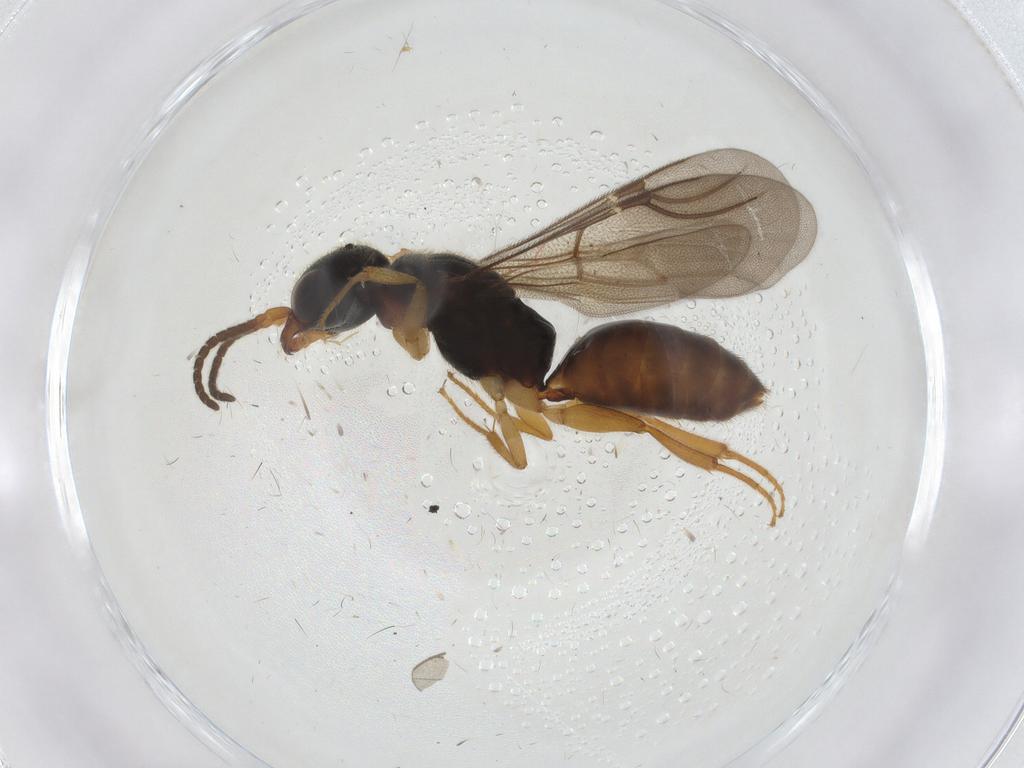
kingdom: Animalia
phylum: Arthropoda
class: Insecta
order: Hymenoptera
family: Bethylidae
